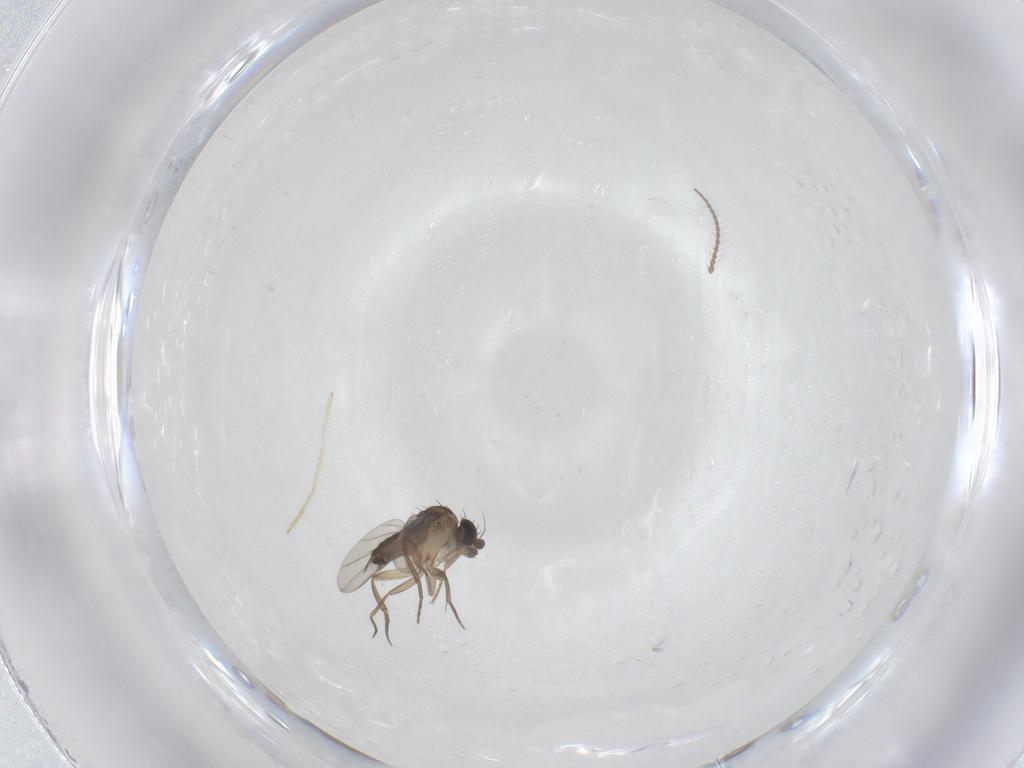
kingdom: Animalia
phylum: Arthropoda
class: Insecta
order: Diptera
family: Phoridae
